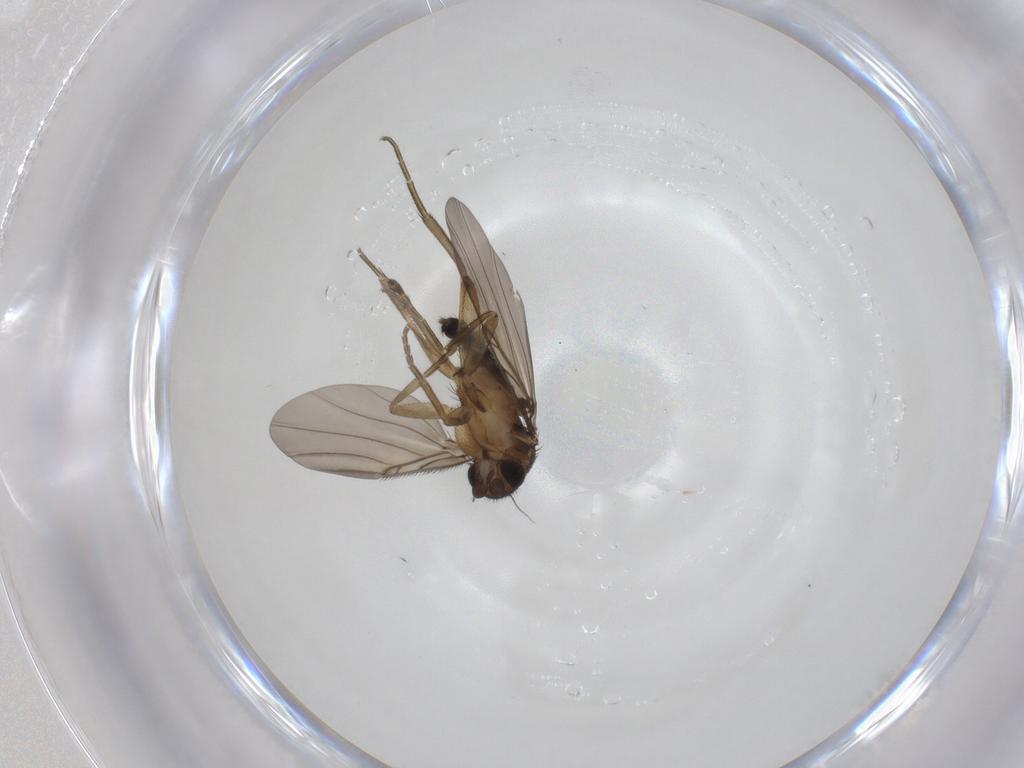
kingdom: Animalia
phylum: Arthropoda
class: Insecta
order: Diptera
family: Phoridae
